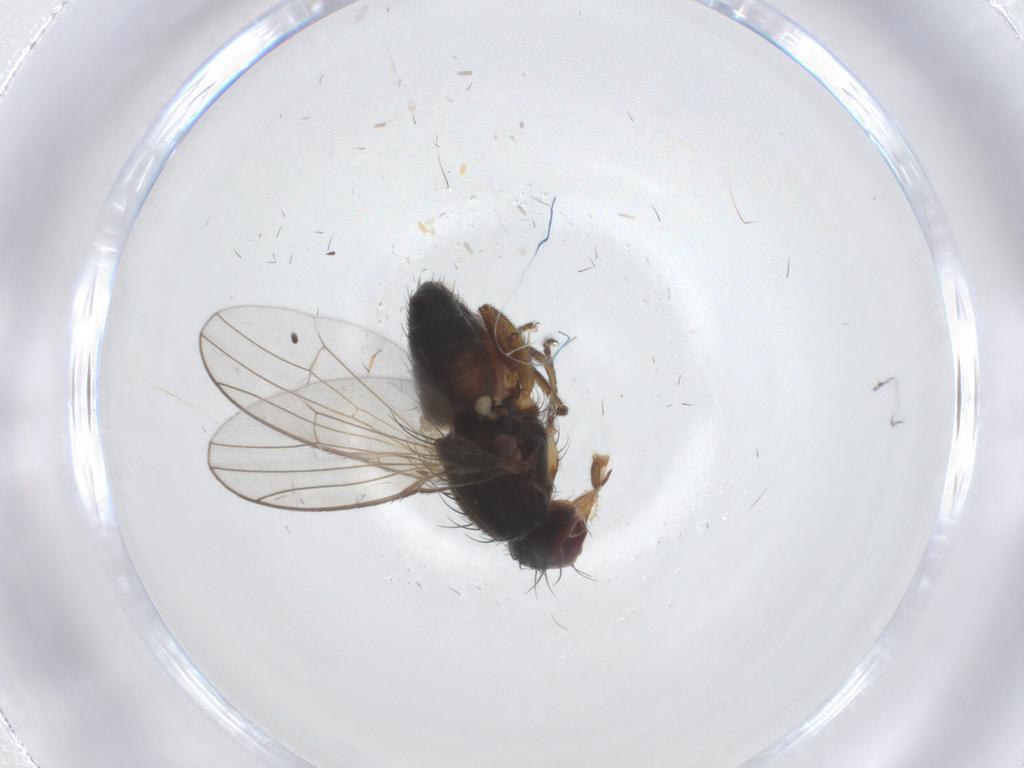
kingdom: Animalia
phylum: Arthropoda
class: Insecta
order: Diptera
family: Heleomyzidae
